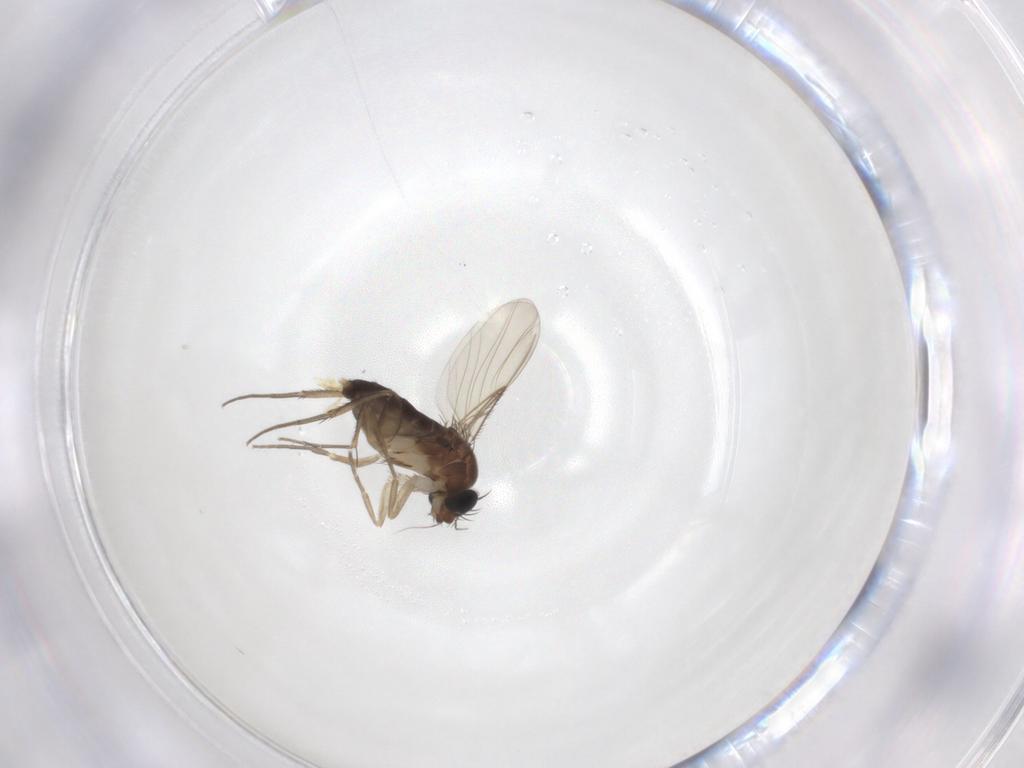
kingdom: Animalia
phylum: Arthropoda
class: Insecta
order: Diptera
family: Phoridae
